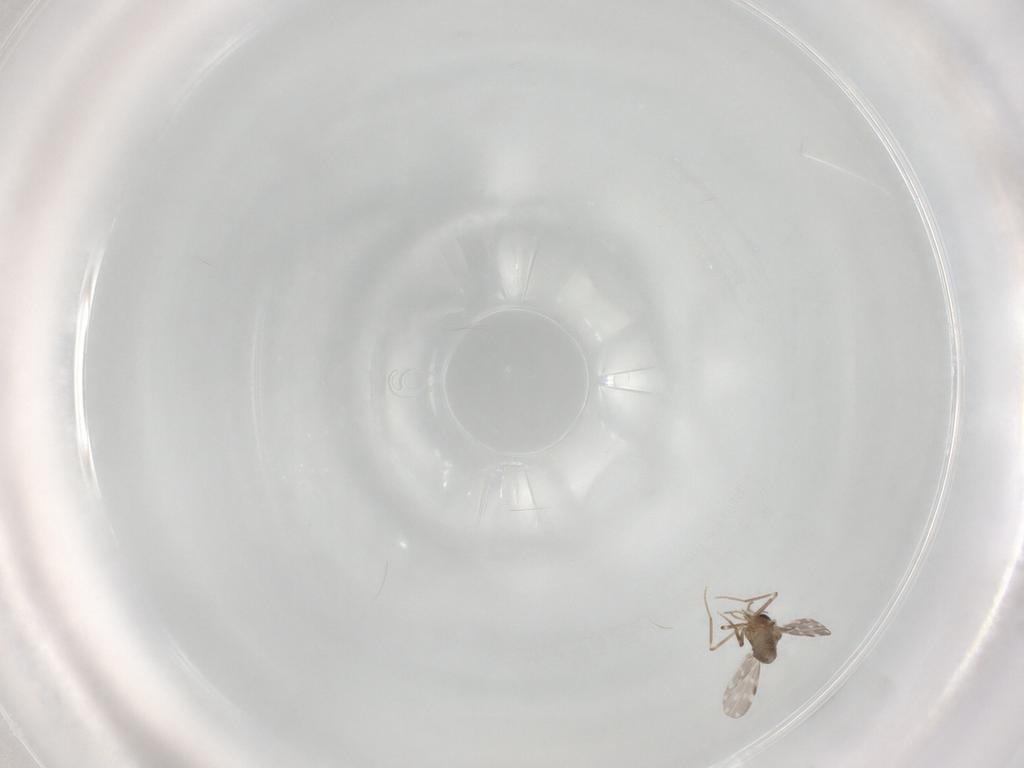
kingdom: Animalia
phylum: Arthropoda
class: Insecta
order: Diptera
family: Ceratopogonidae
